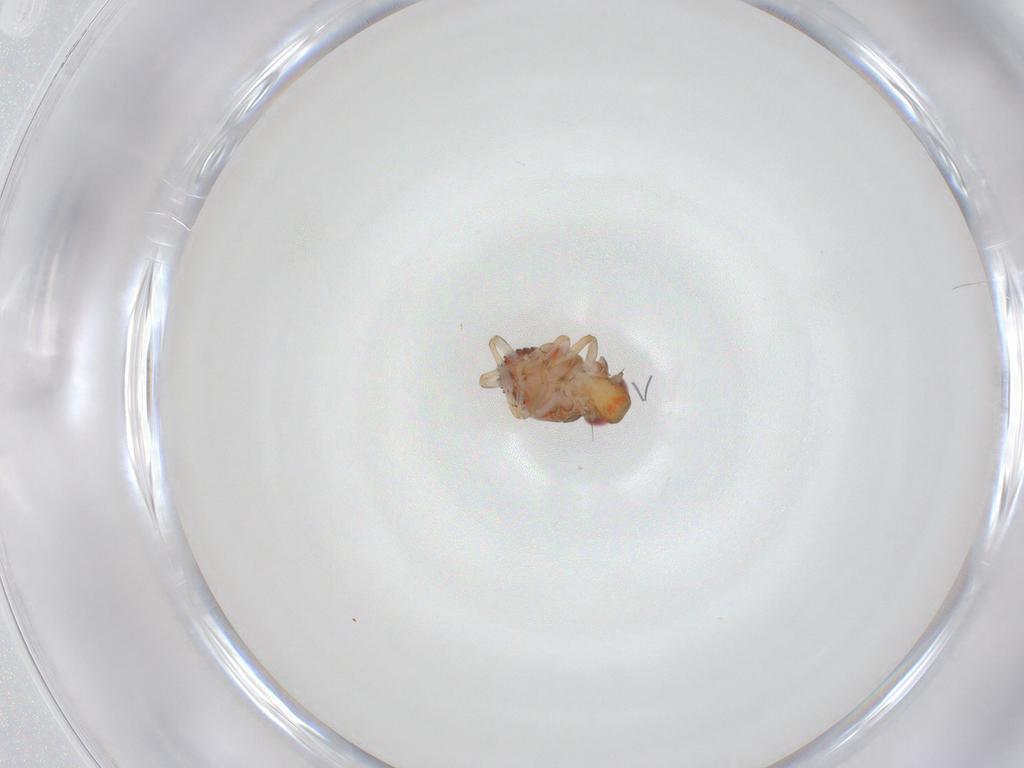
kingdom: Animalia
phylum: Arthropoda
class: Insecta
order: Hemiptera
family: Issidae
